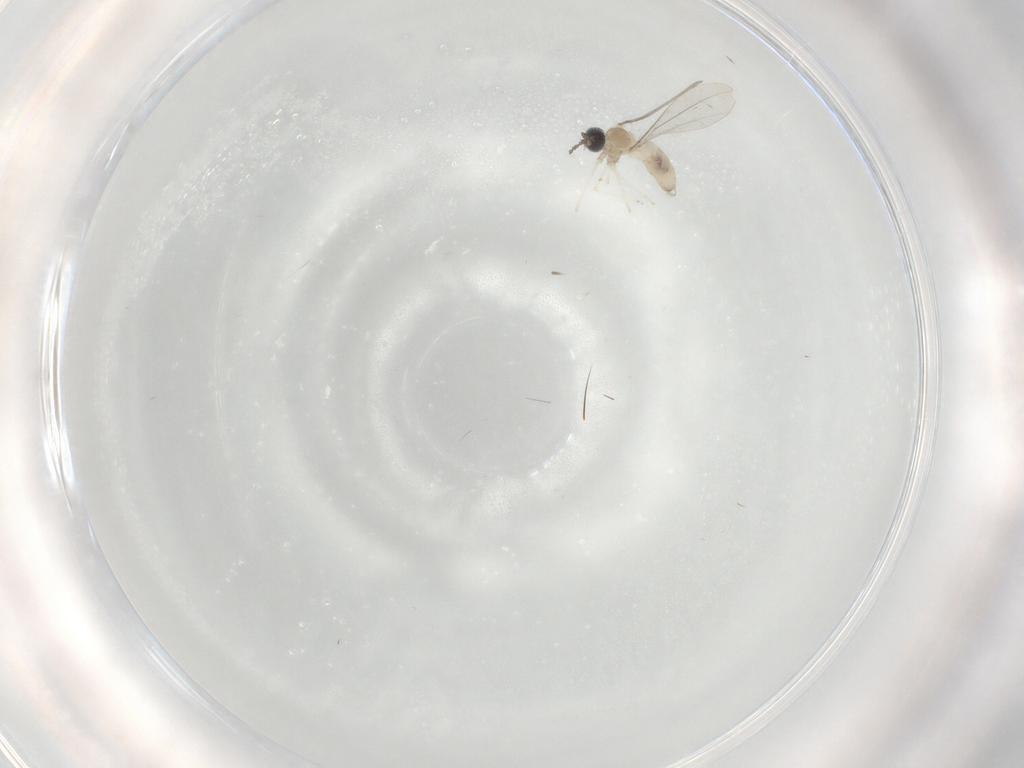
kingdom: Animalia
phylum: Arthropoda
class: Insecta
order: Diptera
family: Cecidomyiidae
